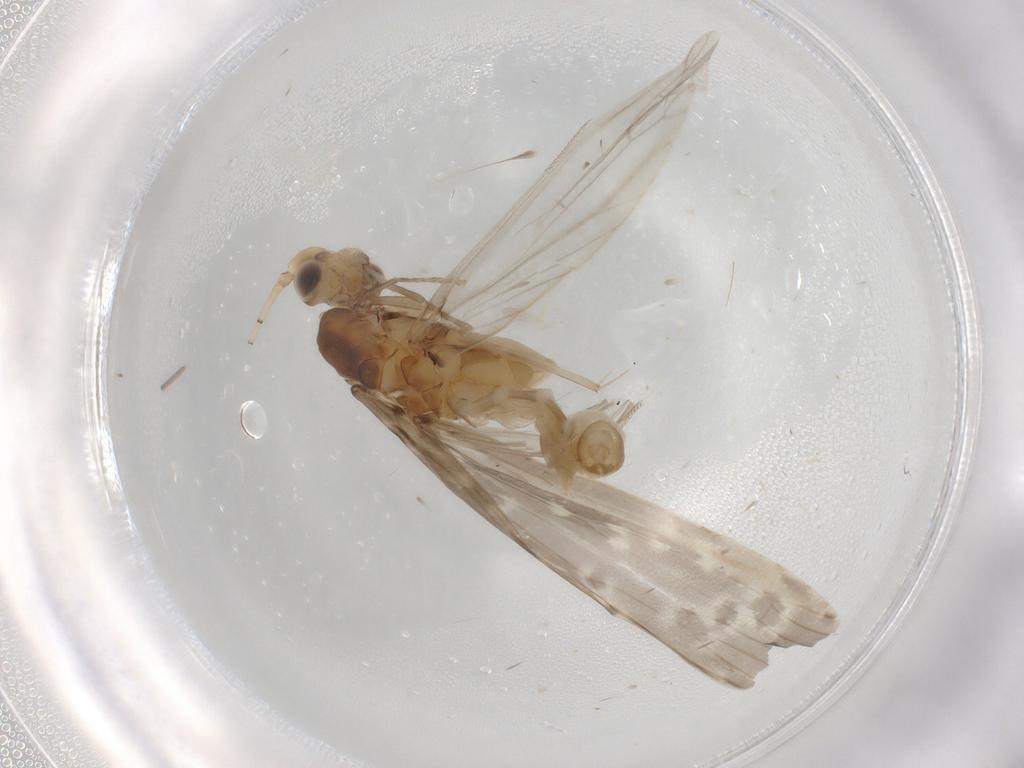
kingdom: Animalia
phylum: Arthropoda
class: Insecta
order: Trichoptera
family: Leptoceridae
